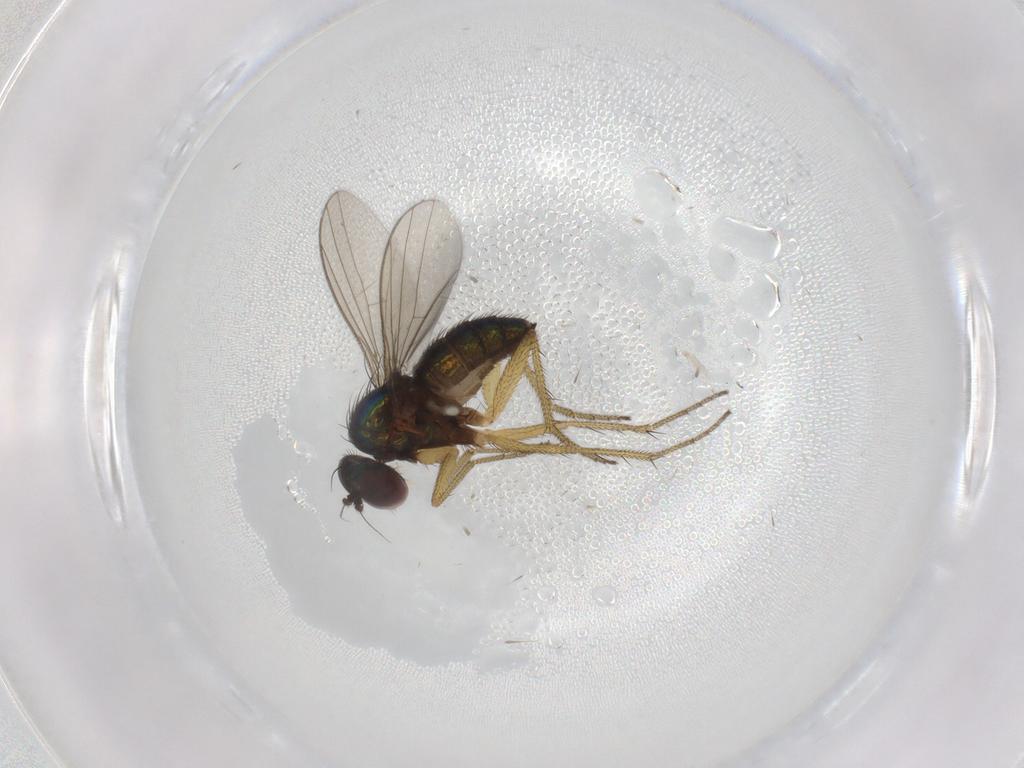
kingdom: Animalia
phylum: Arthropoda
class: Insecta
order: Diptera
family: Dolichopodidae
